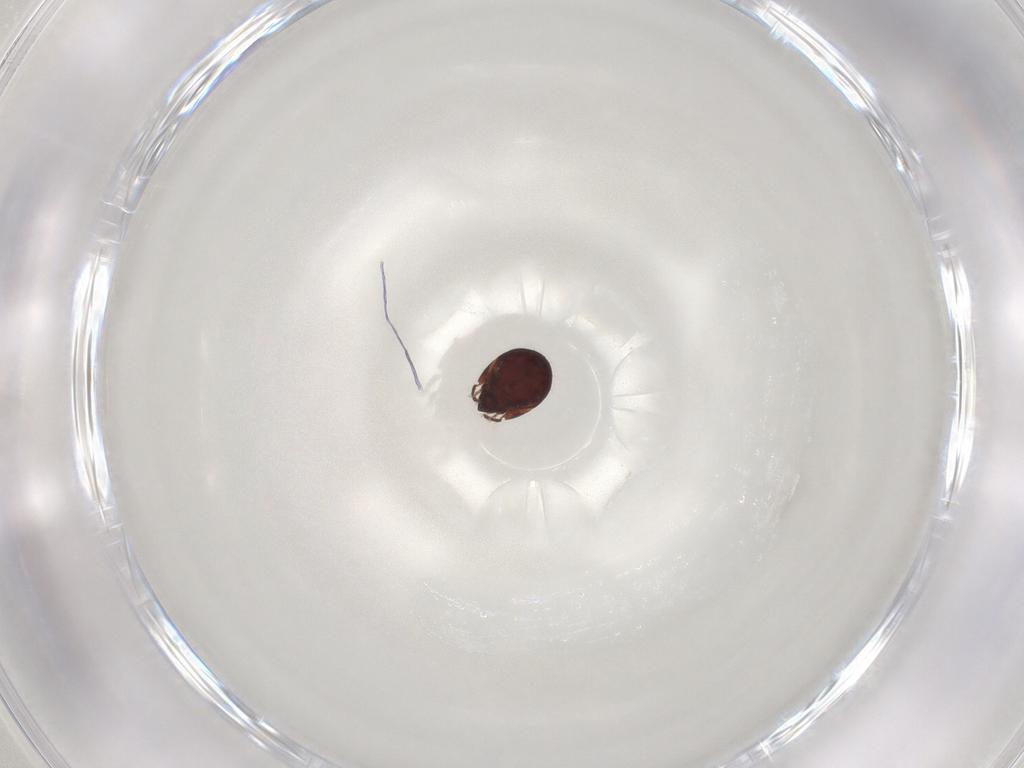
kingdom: Animalia
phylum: Arthropoda
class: Arachnida
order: Sarcoptiformes
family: Humerobatidae
